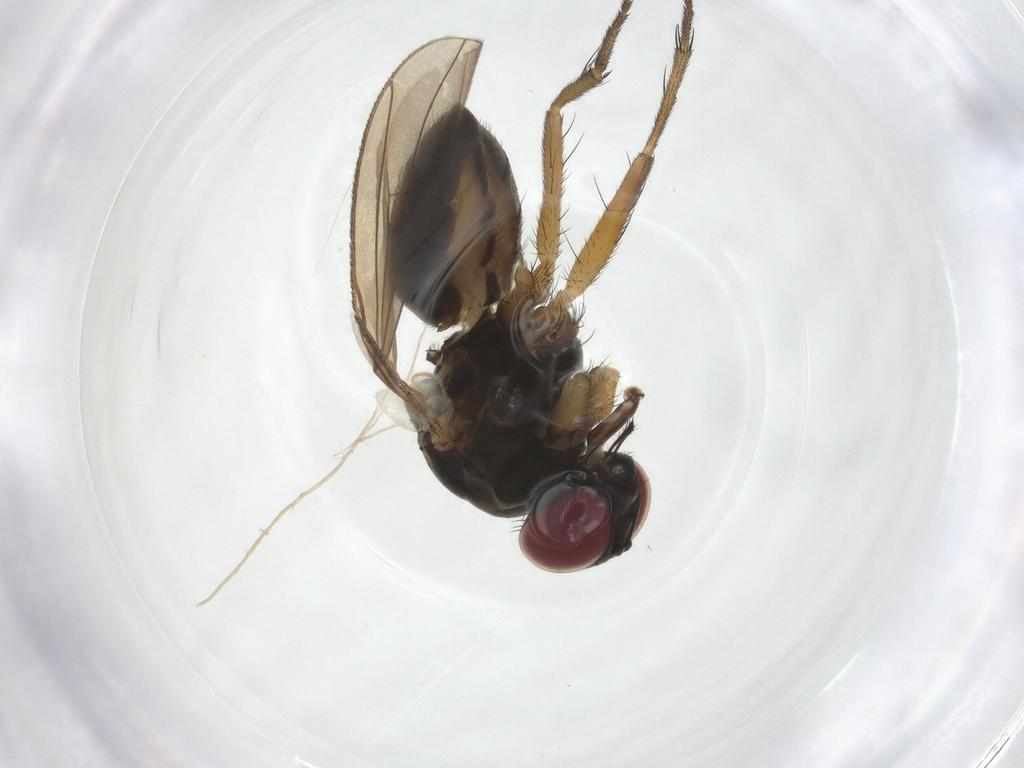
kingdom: Animalia
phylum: Arthropoda
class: Insecta
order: Diptera
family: Muscidae
